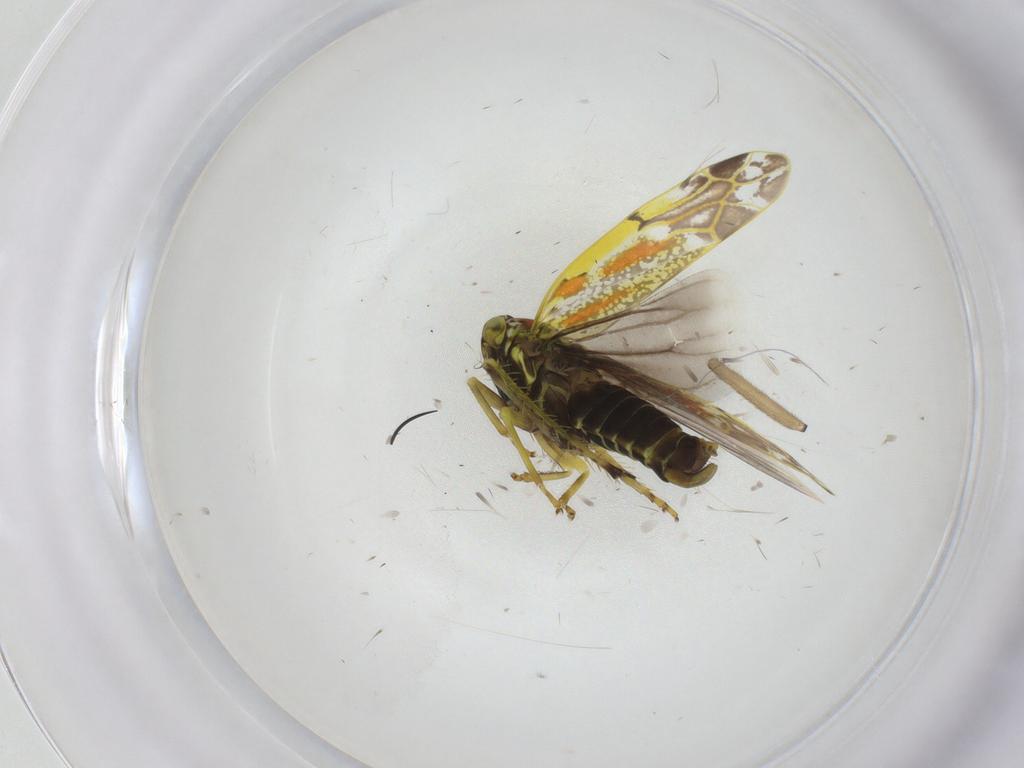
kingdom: Animalia
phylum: Arthropoda
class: Insecta
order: Hemiptera
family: Cicadellidae
